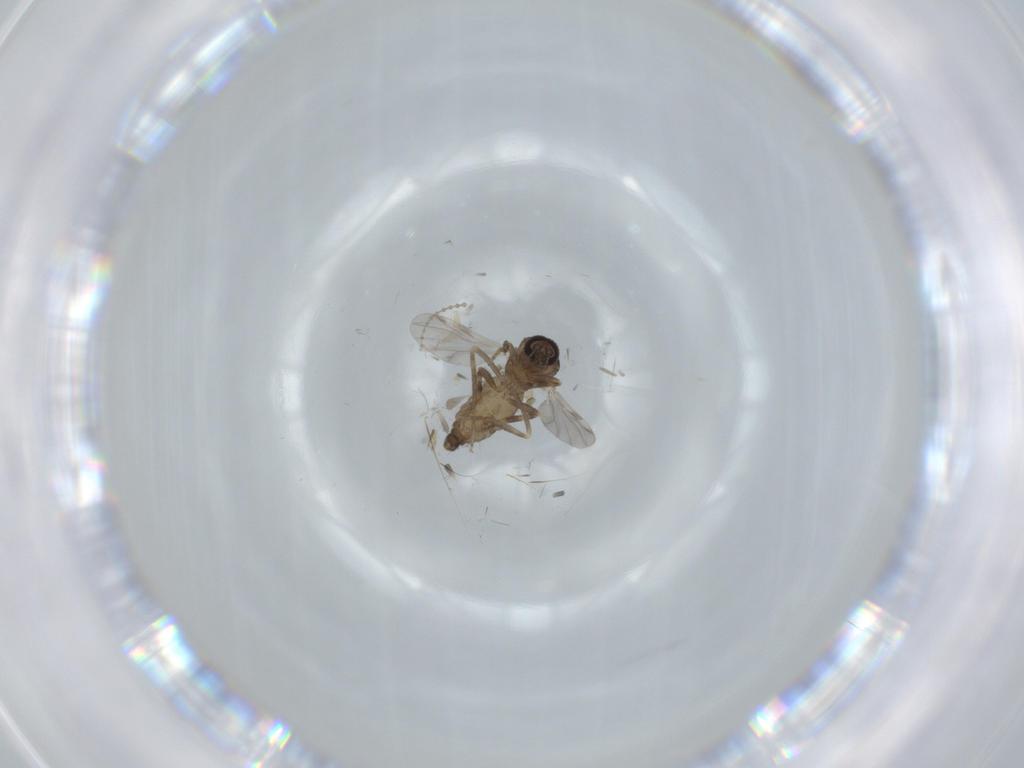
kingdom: Animalia
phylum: Arthropoda
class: Insecta
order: Diptera
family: Ceratopogonidae
